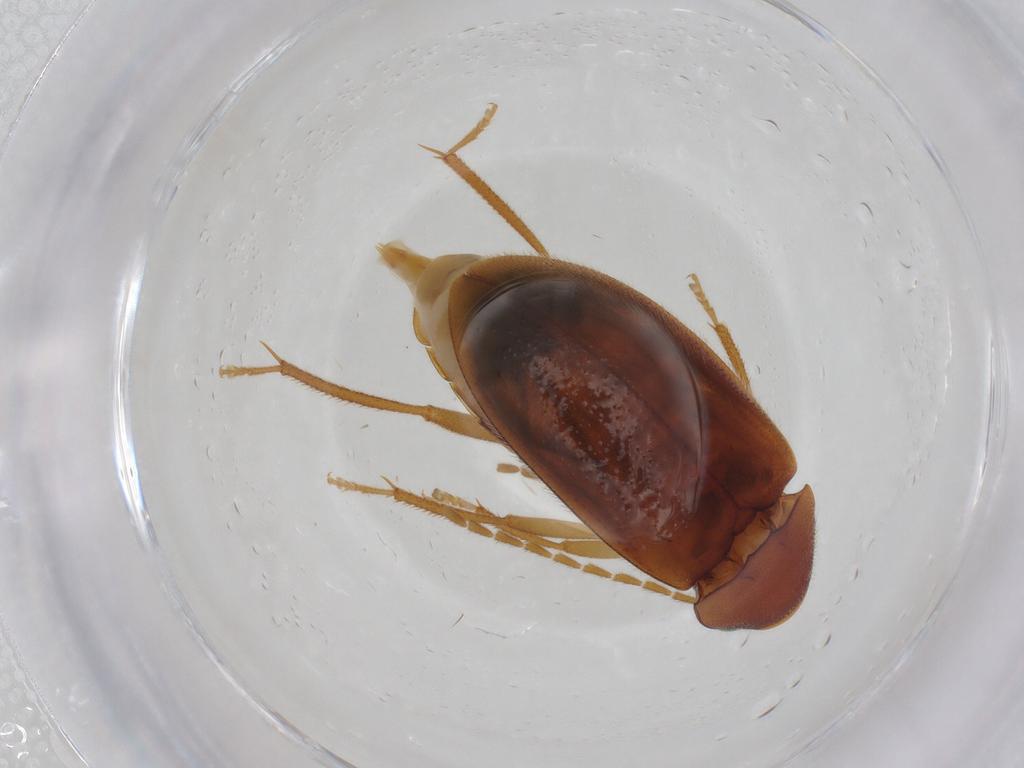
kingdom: Animalia
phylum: Arthropoda
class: Insecta
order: Coleoptera
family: Ptilodactylidae
